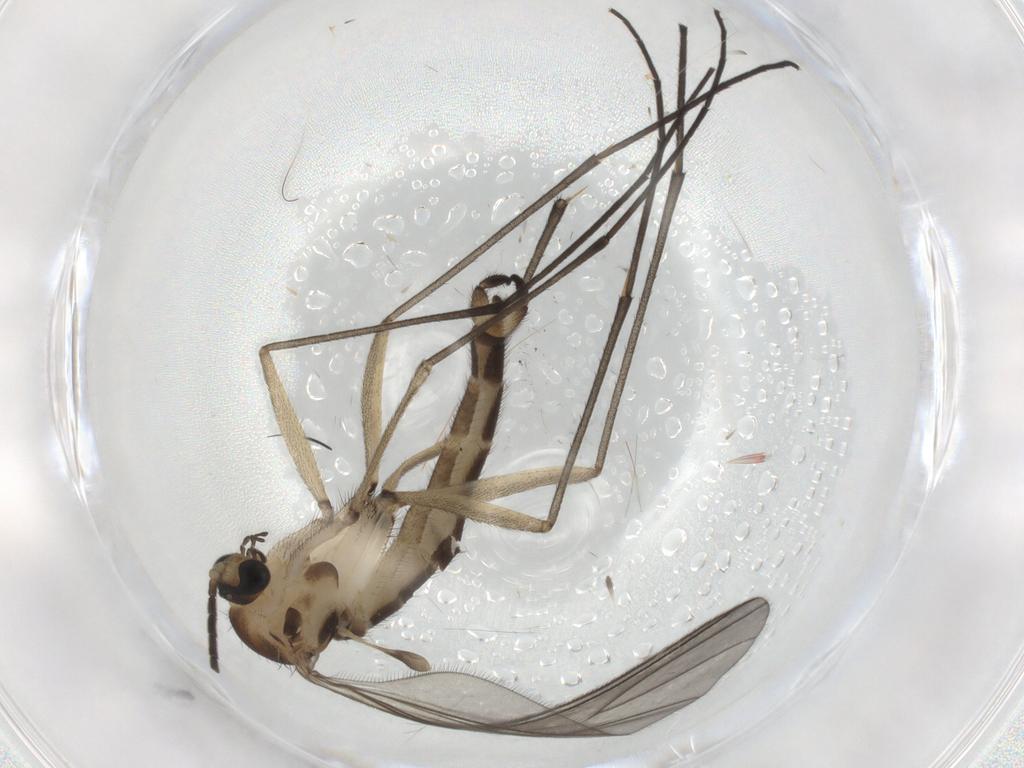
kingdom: Animalia
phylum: Arthropoda
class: Insecta
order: Diptera
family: Sciaridae
